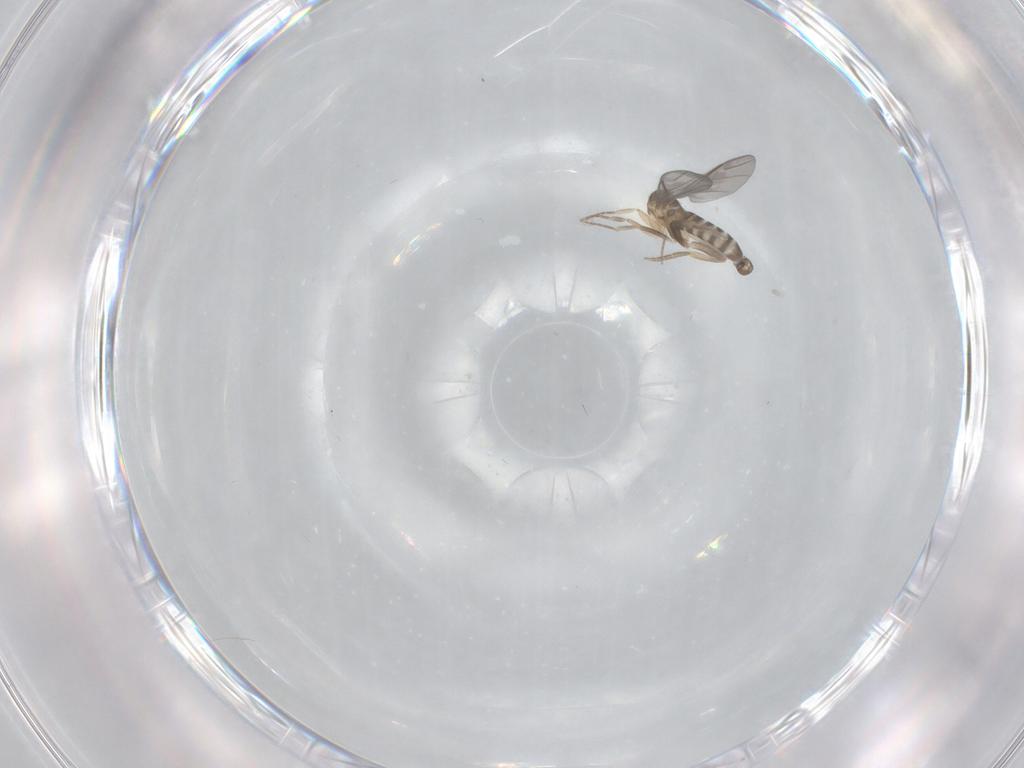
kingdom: Animalia
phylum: Arthropoda
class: Insecta
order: Diptera
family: Chironomidae
